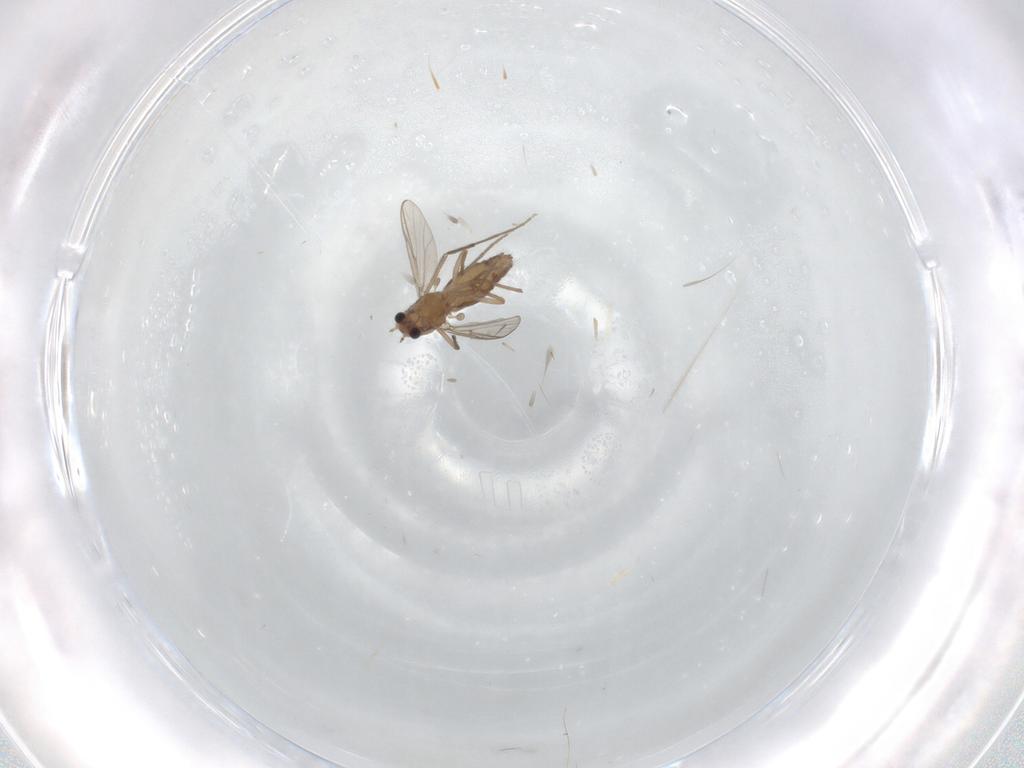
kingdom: Animalia
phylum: Arthropoda
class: Insecta
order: Diptera
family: Chironomidae
